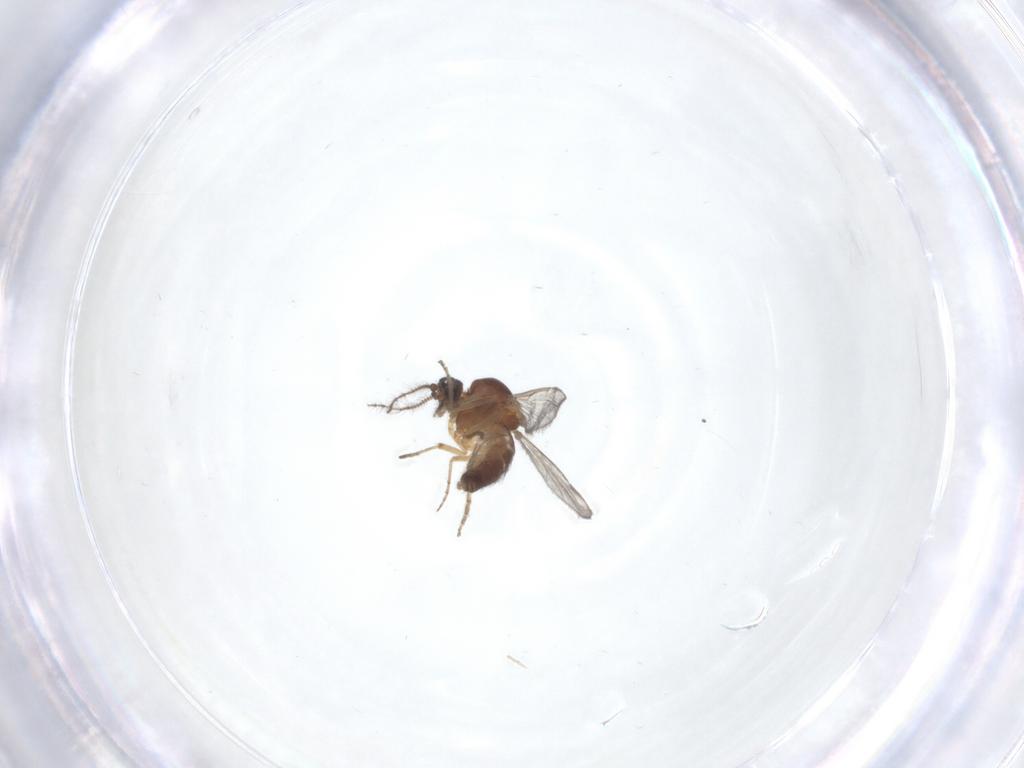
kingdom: Animalia
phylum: Arthropoda
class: Insecta
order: Diptera
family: Ceratopogonidae
